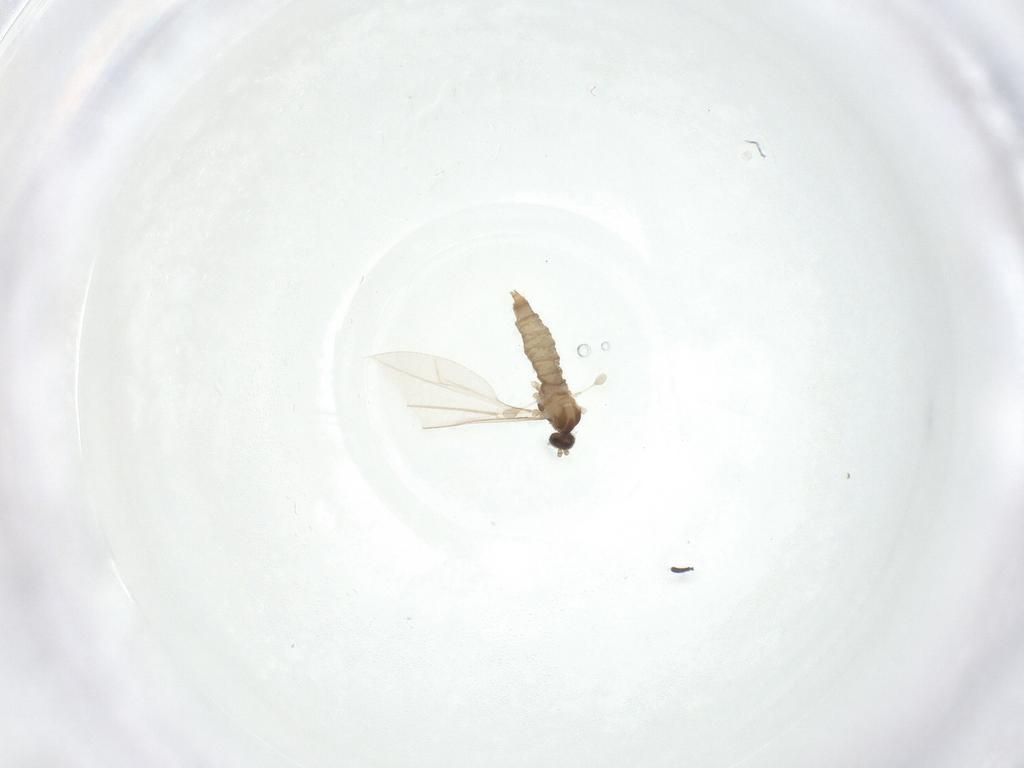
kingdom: Animalia
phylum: Arthropoda
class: Insecta
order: Diptera
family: Cecidomyiidae
